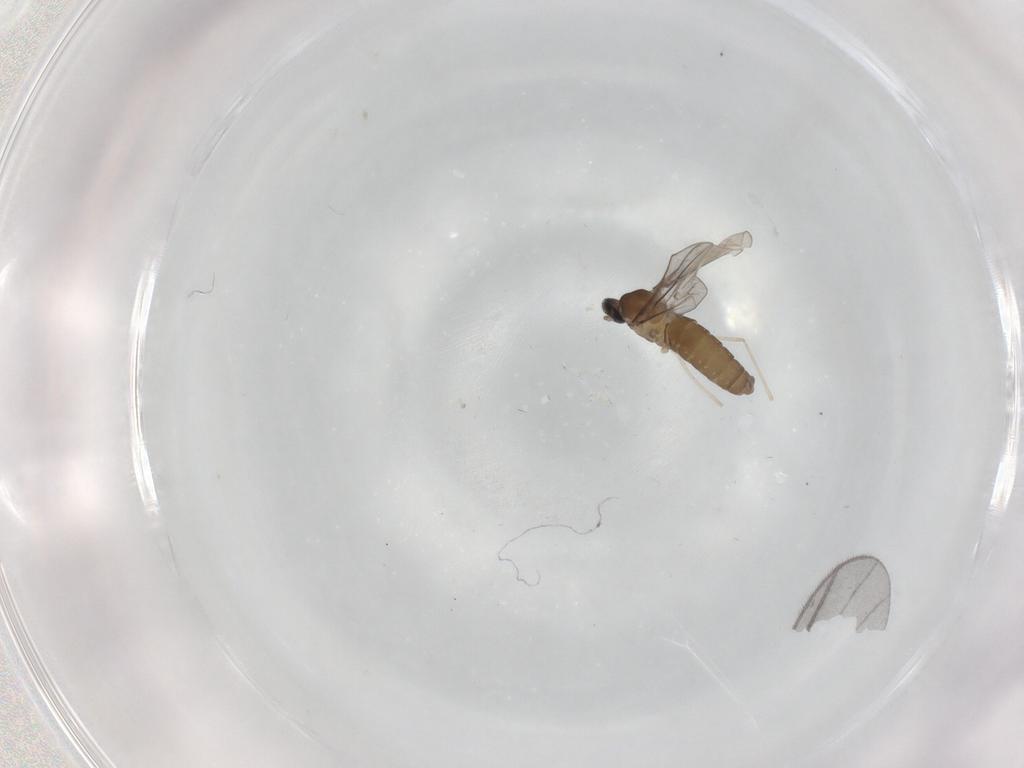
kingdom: Animalia
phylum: Arthropoda
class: Insecta
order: Diptera
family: Cecidomyiidae
